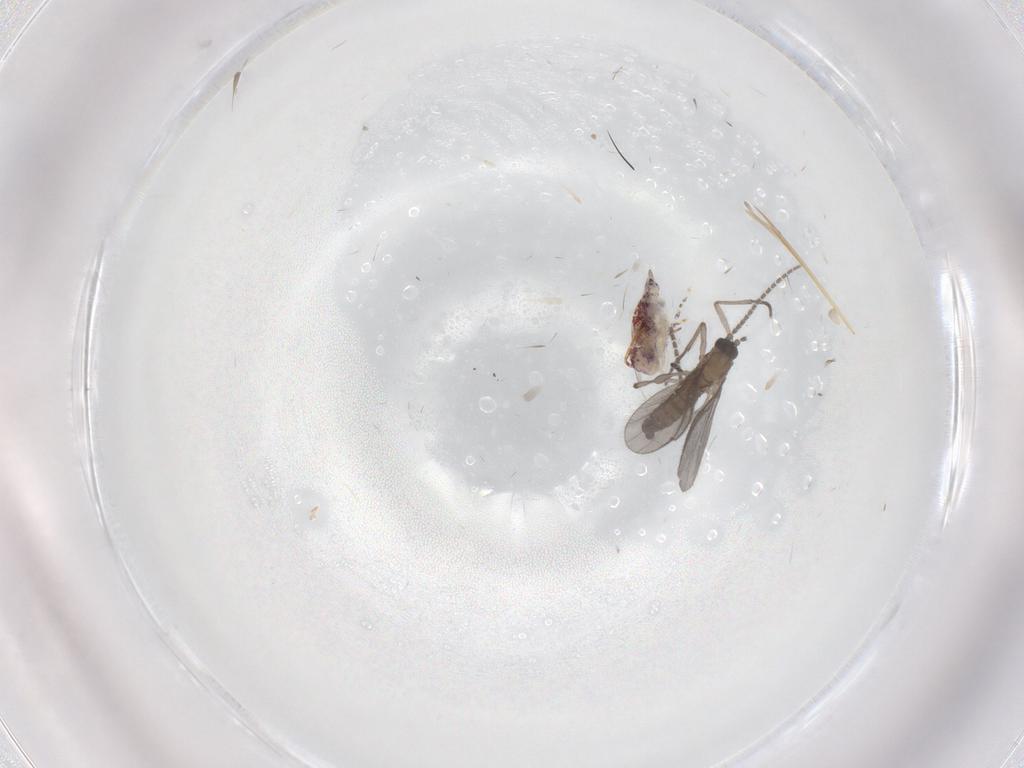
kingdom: Animalia
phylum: Arthropoda
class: Insecta
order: Diptera
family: Sciaridae
